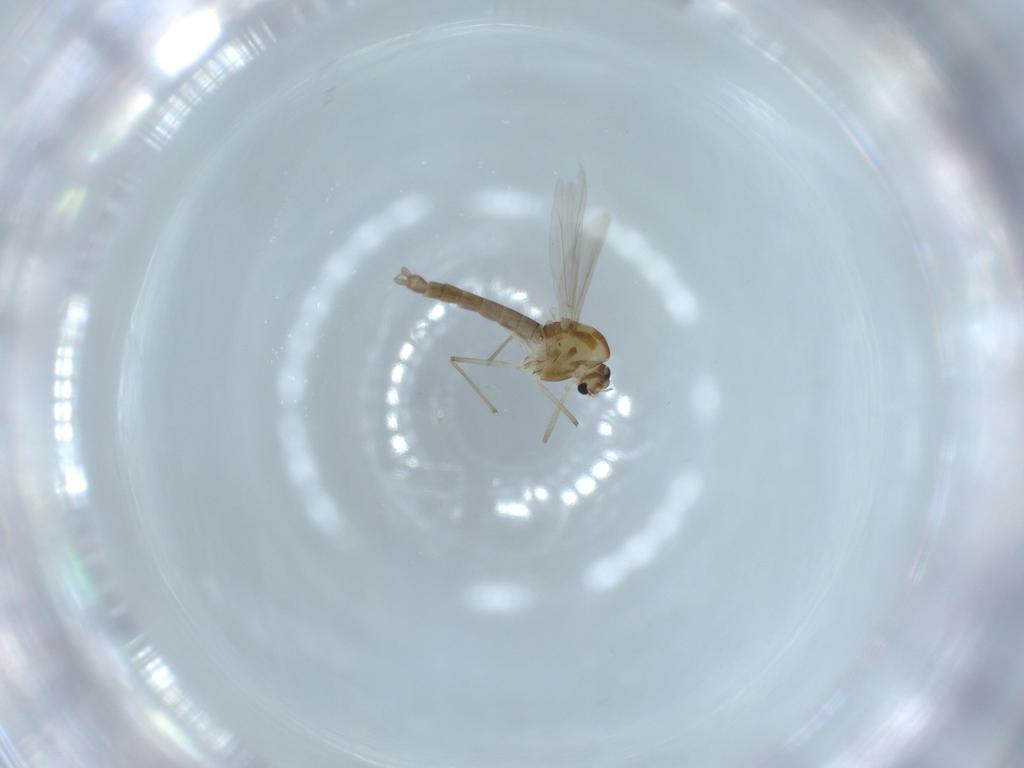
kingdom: Animalia
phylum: Arthropoda
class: Insecta
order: Diptera
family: Chironomidae
